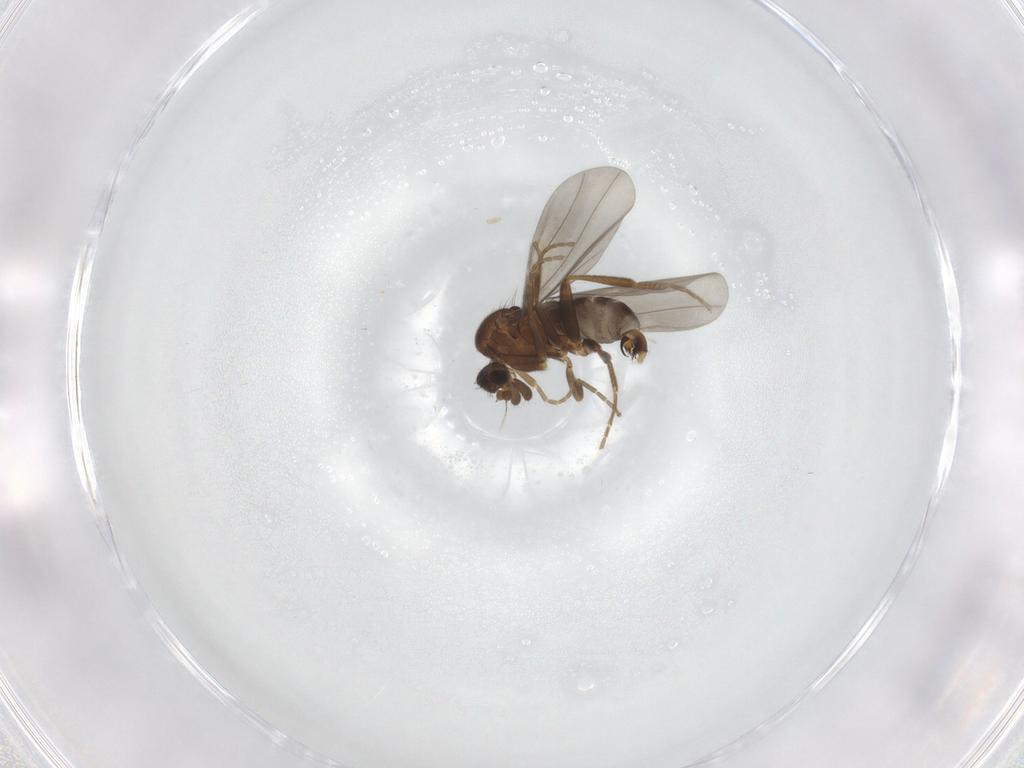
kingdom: Animalia
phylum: Arthropoda
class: Insecta
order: Diptera
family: Phoridae
